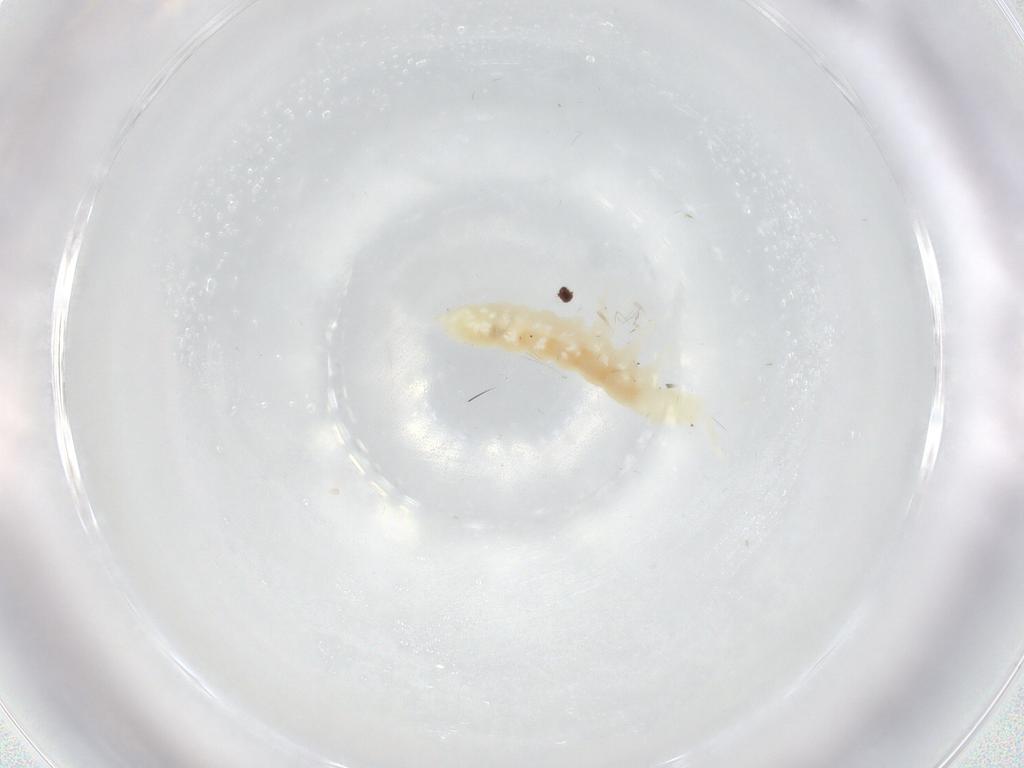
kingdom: Animalia
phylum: Arthropoda
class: Collembola
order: Poduromorpha
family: Onychiuridae
